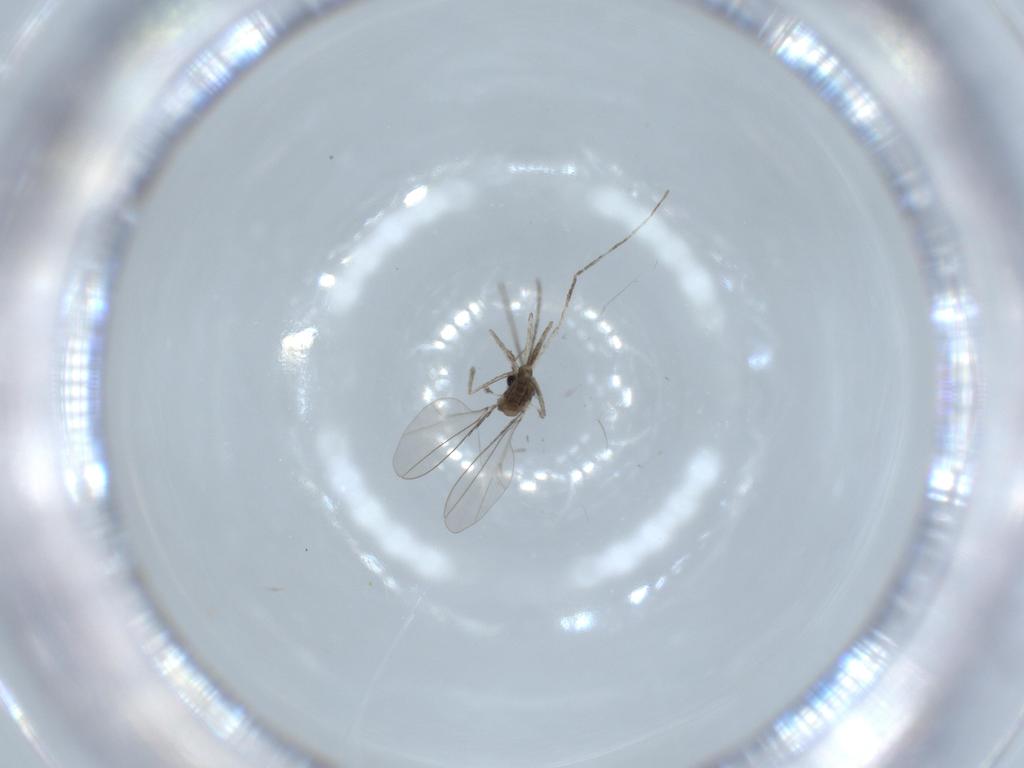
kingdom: Animalia
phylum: Arthropoda
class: Insecta
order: Diptera
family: Cecidomyiidae
